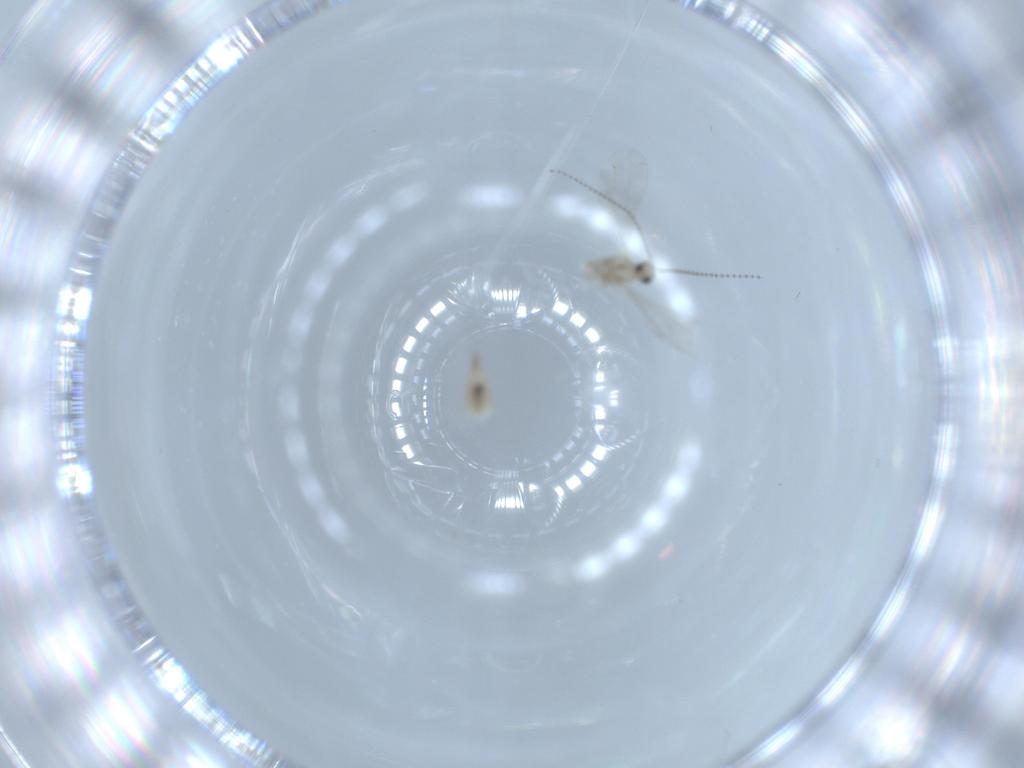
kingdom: Animalia
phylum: Arthropoda
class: Insecta
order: Diptera
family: Cecidomyiidae
